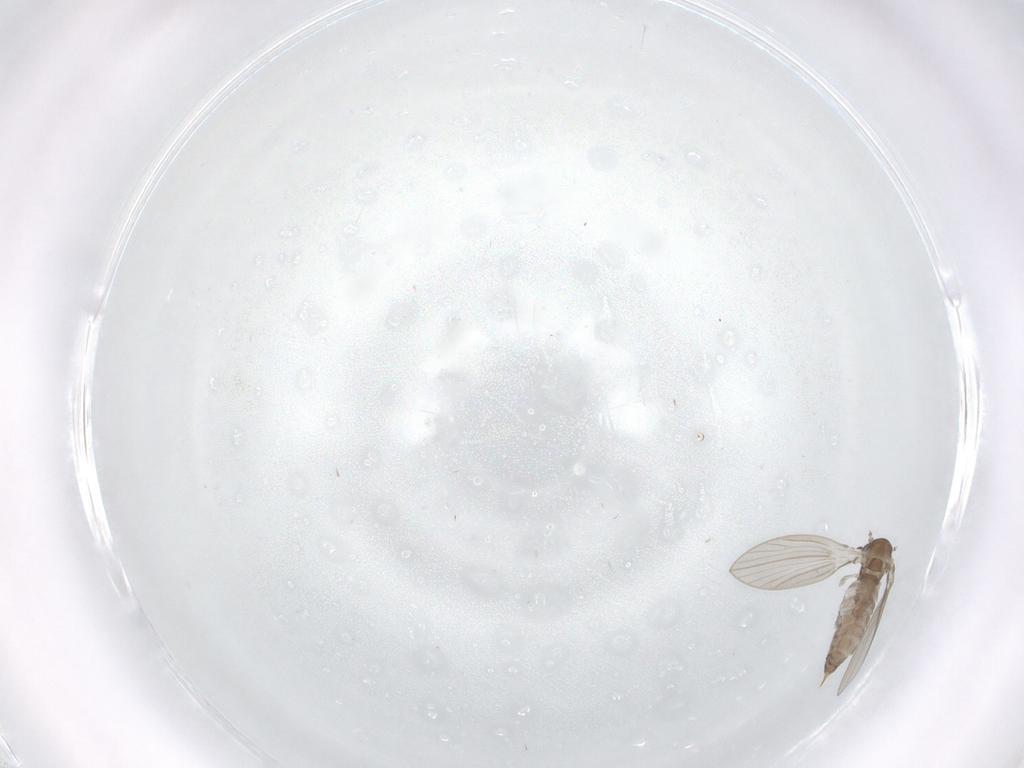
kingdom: Animalia
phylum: Arthropoda
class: Insecta
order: Diptera
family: Psychodidae
